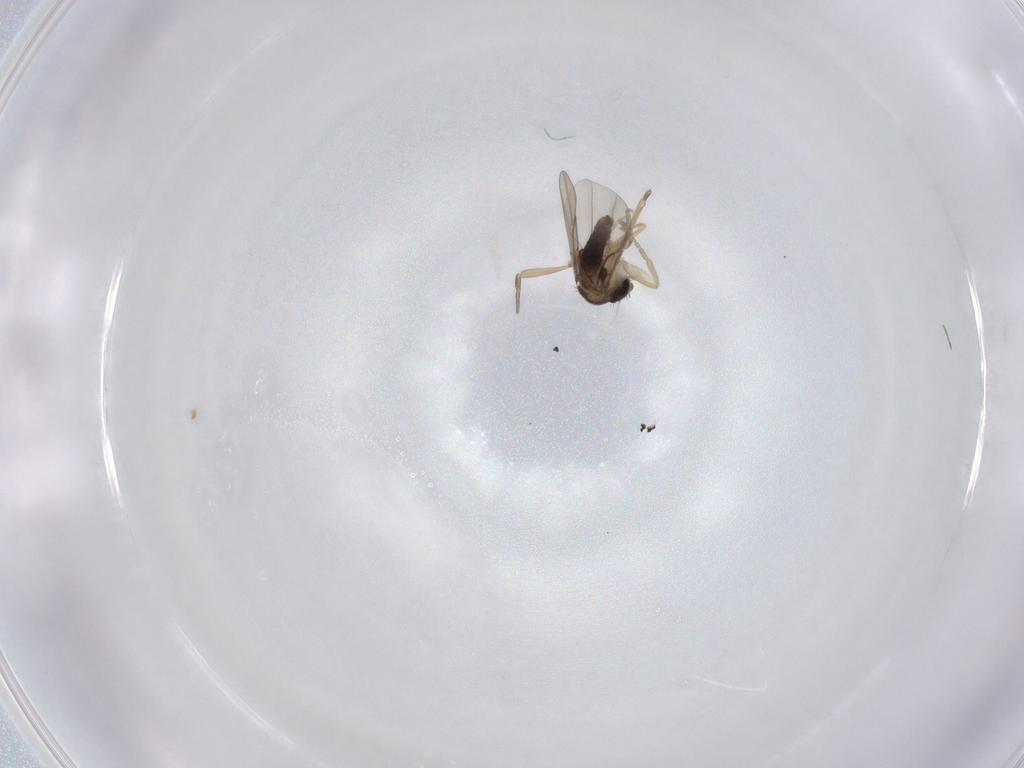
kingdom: Animalia
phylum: Arthropoda
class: Insecta
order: Diptera
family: Phoridae
